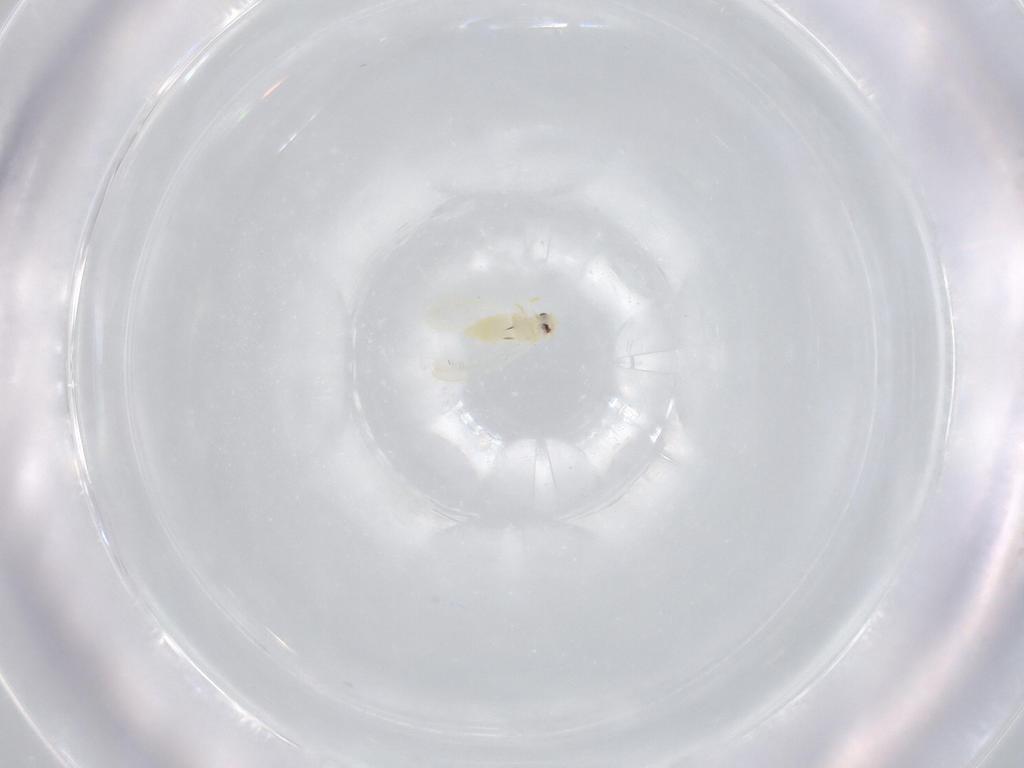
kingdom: Animalia
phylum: Arthropoda
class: Insecta
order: Hemiptera
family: Aleyrodidae
